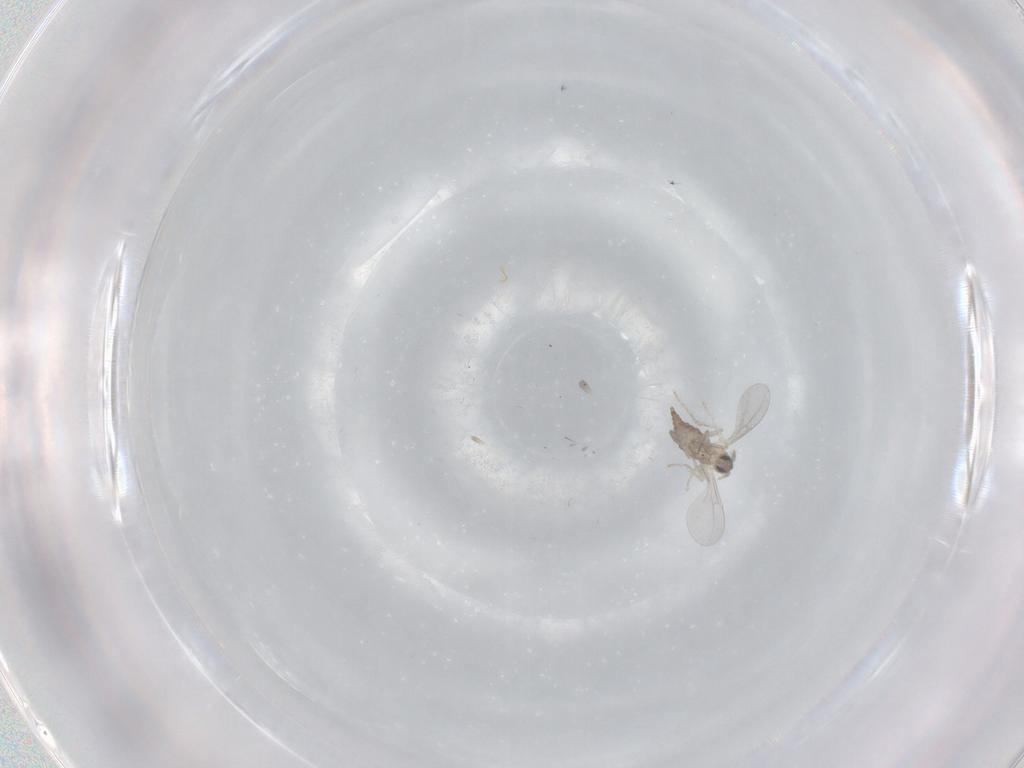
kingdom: Animalia
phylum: Arthropoda
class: Insecta
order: Diptera
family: Cecidomyiidae
